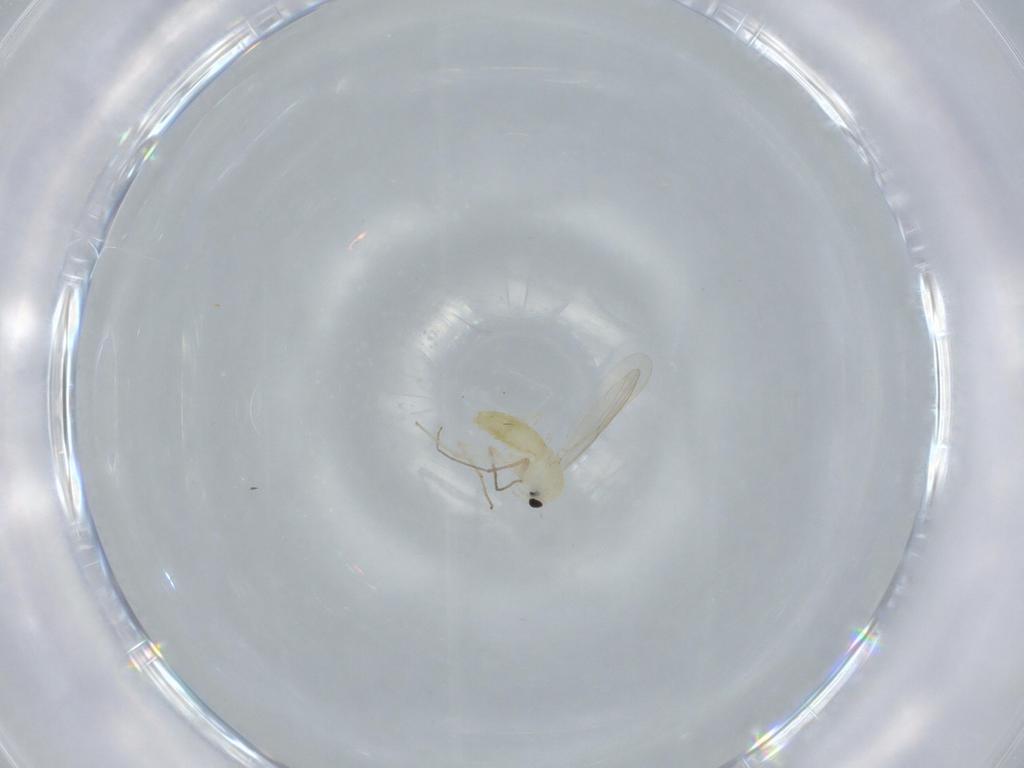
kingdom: Animalia
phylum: Arthropoda
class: Insecta
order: Diptera
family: Chironomidae
